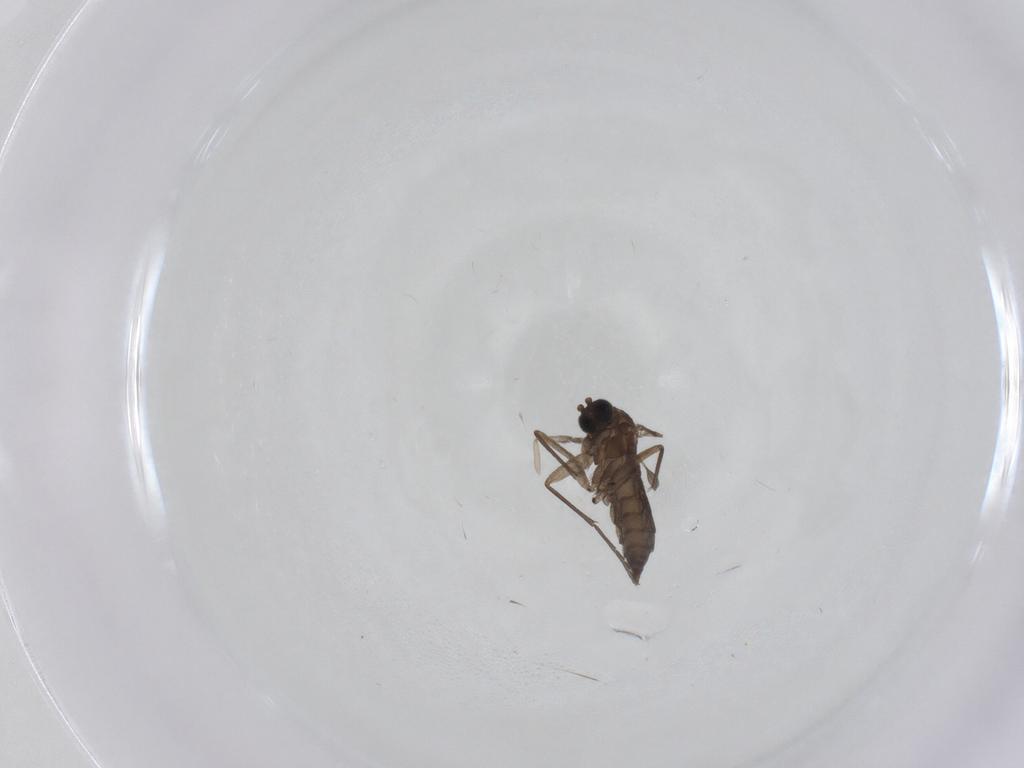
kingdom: Animalia
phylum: Arthropoda
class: Insecta
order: Diptera
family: Sciaridae
